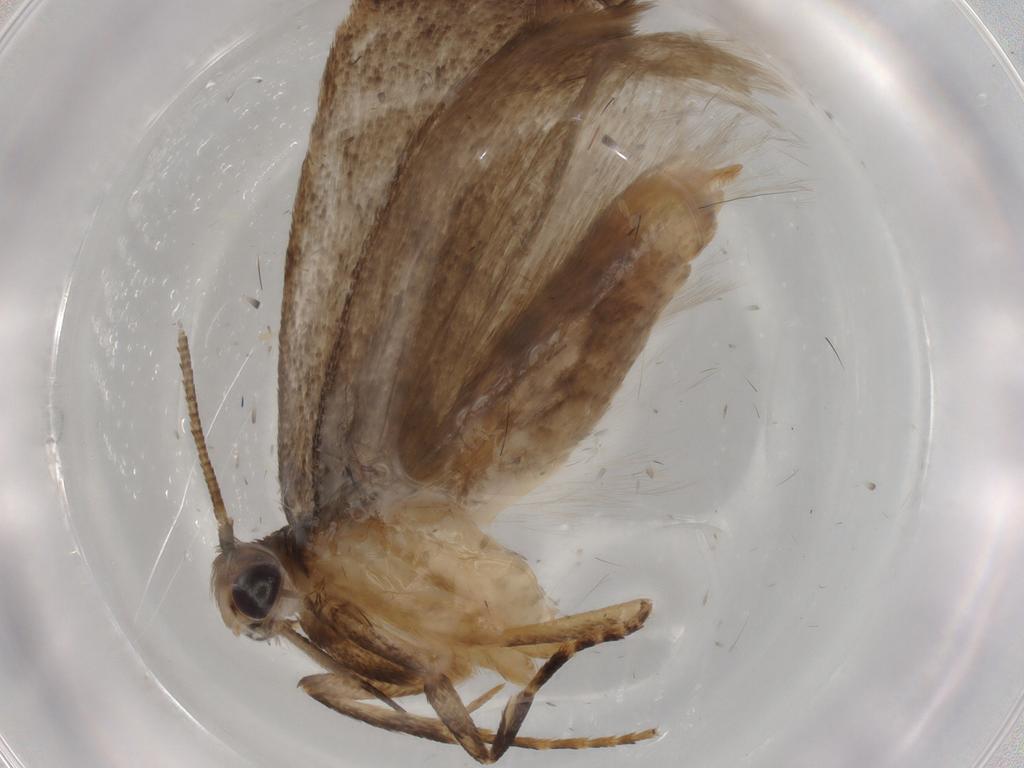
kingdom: Animalia
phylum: Arthropoda
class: Insecta
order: Lepidoptera
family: Gelechiidae
